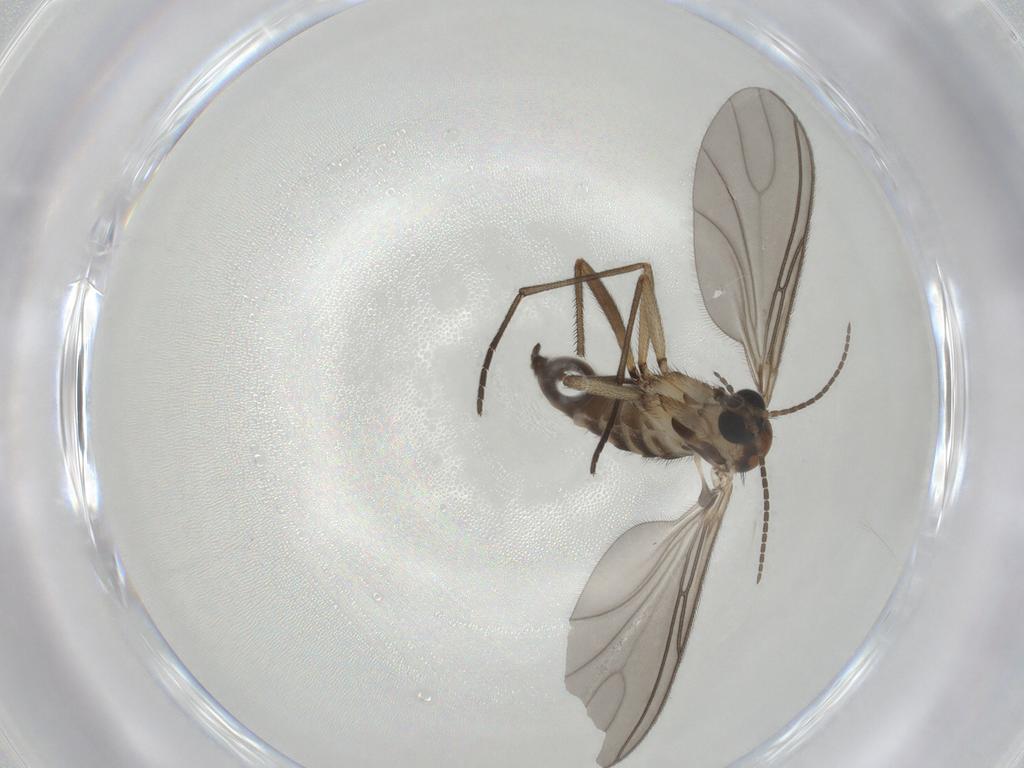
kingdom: Animalia
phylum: Arthropoda
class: Insecta
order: Diptera
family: Cecidomyiidae
